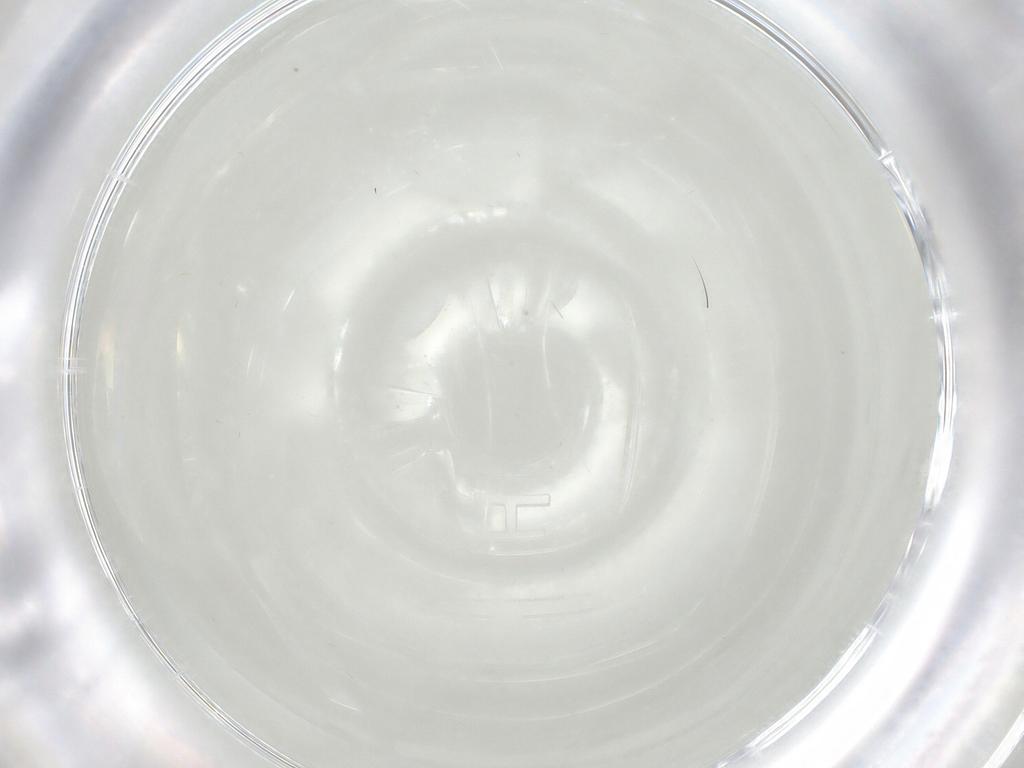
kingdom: Animalia
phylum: Arthropoda
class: Insecta
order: Diptera
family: Chironomidae
